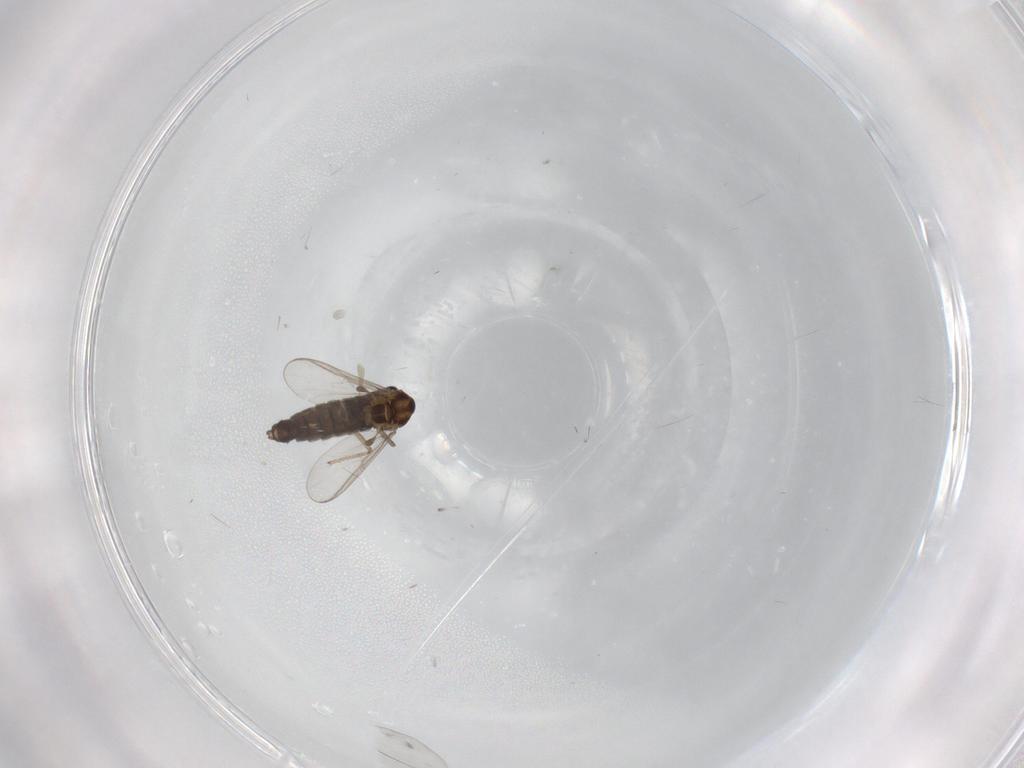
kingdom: Animalia
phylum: Arthropoda
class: Insecta
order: Diptera
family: Chironomidae
